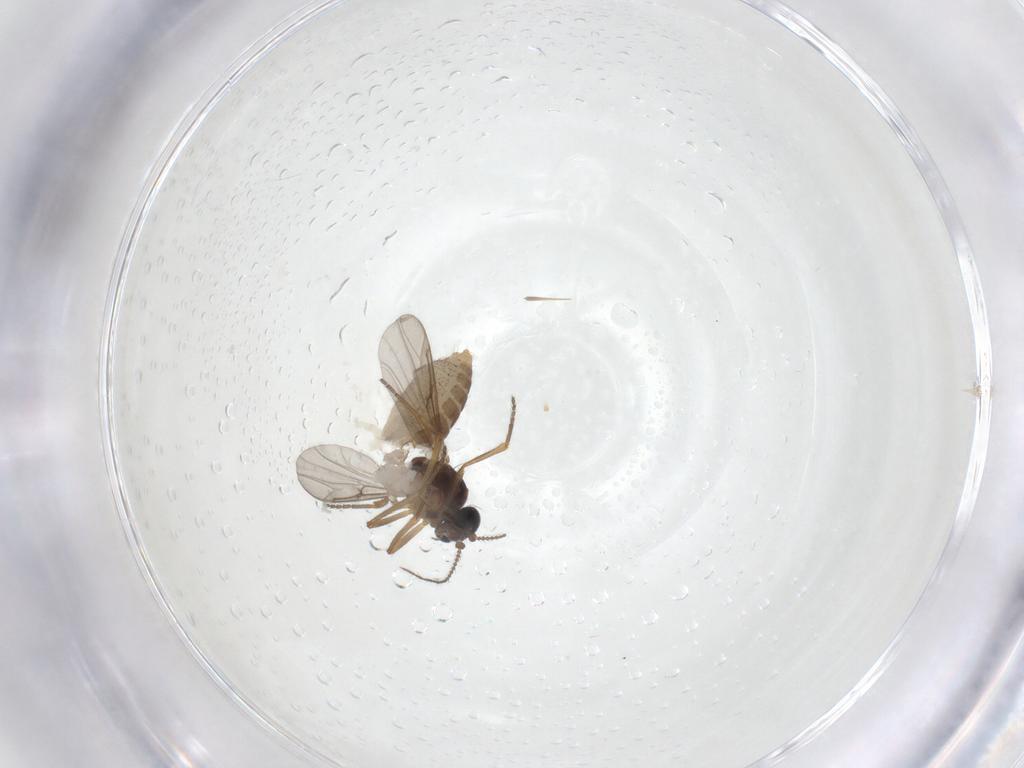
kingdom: Animalia
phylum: Arthropoda
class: Insecta
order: Diptera
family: Ceratopogonidae
